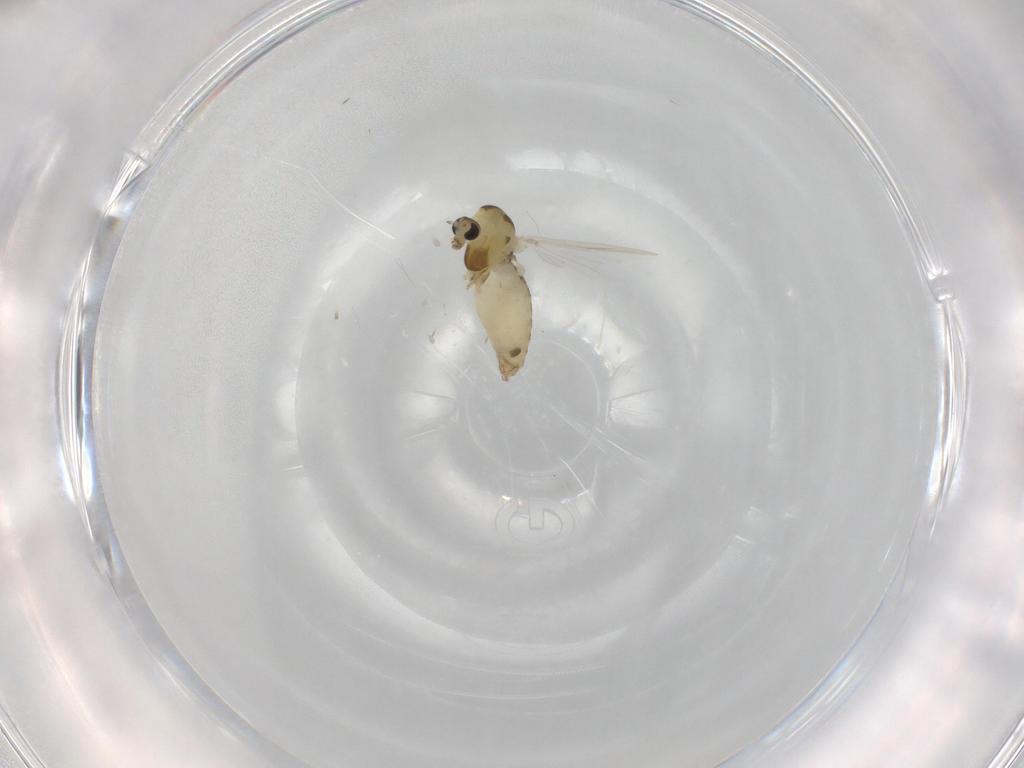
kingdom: Animalia
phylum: Arthropoda
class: Insecta
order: Diptera
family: Chironomidae
